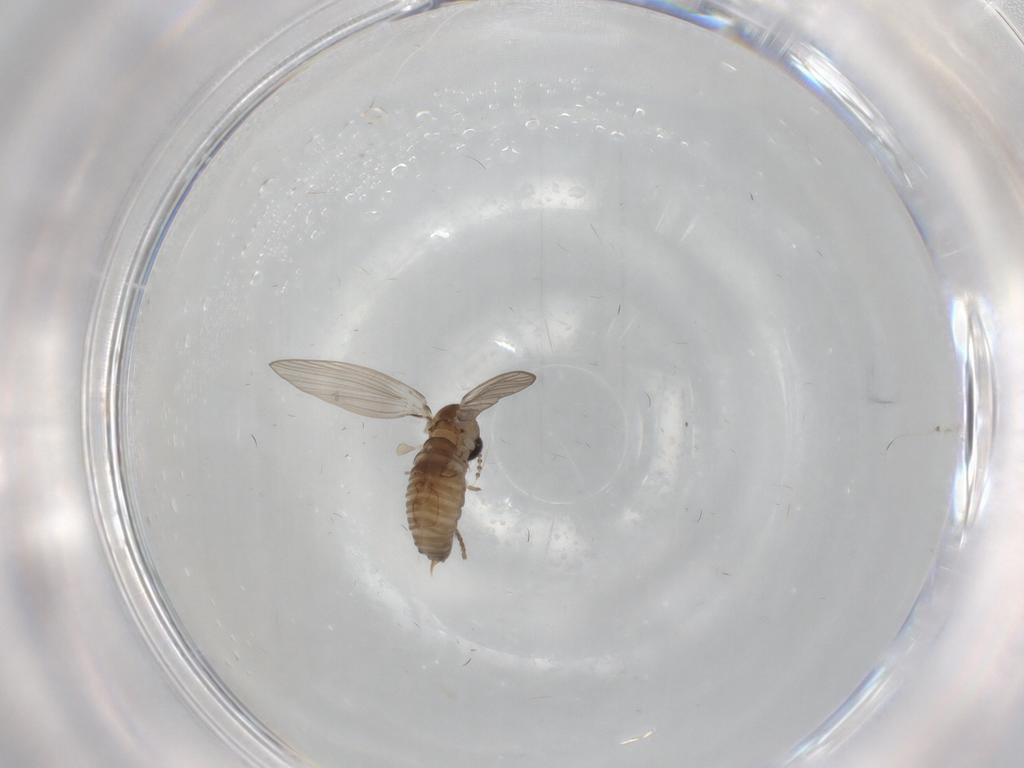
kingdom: Animalia
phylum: Arthropoda
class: Insecta
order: Diptera
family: Psychodidae
